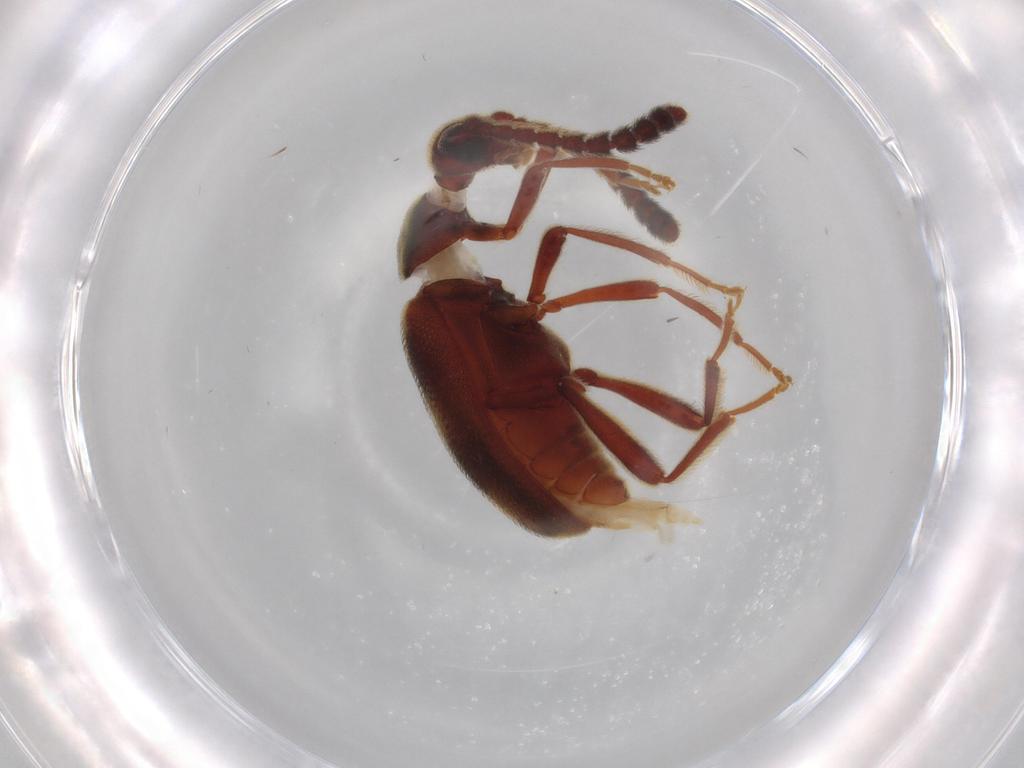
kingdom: Animalia
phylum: Arthropoda
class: Insecta
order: Coleoptera
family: Aderidae
